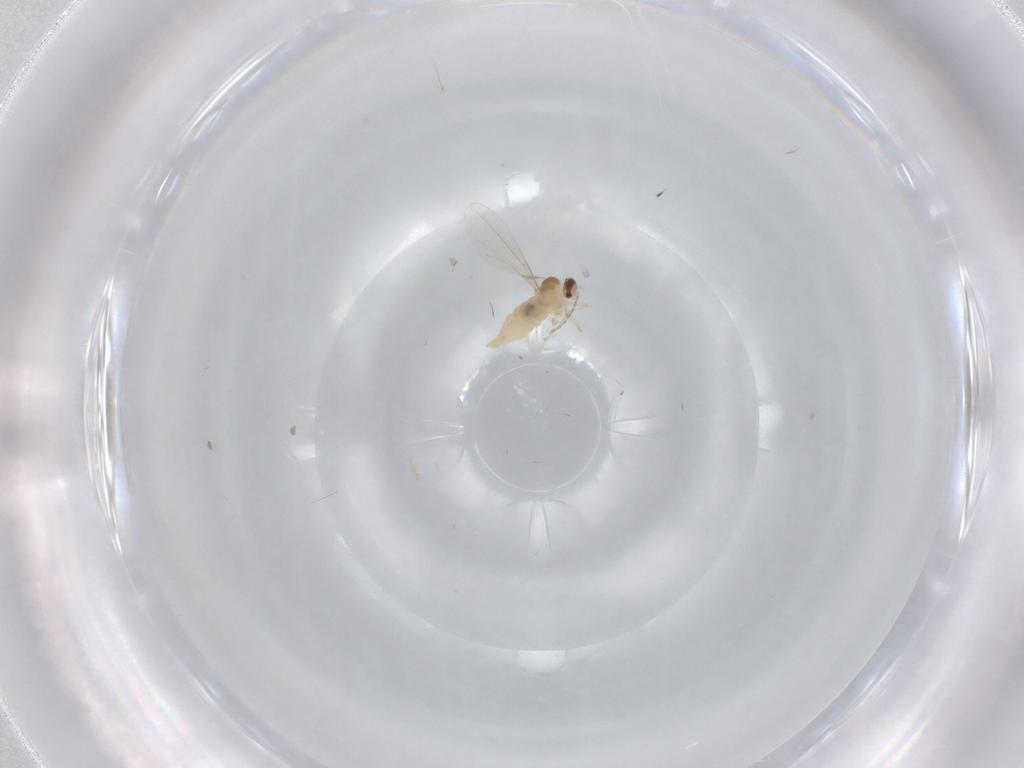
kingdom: Animalia
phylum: Arthropoda
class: Insecta
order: Diptera
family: Cecidomyiidae
